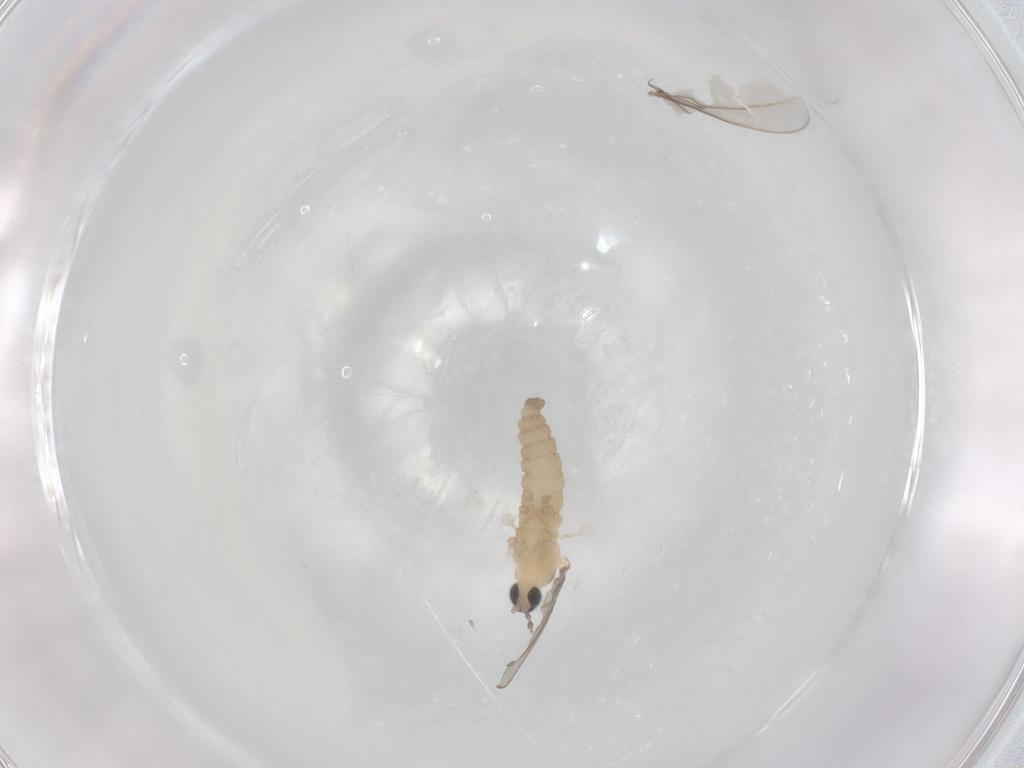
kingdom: Animalia
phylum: Arthropoda
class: Insecta
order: Diptera
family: Cecidomyiidae
